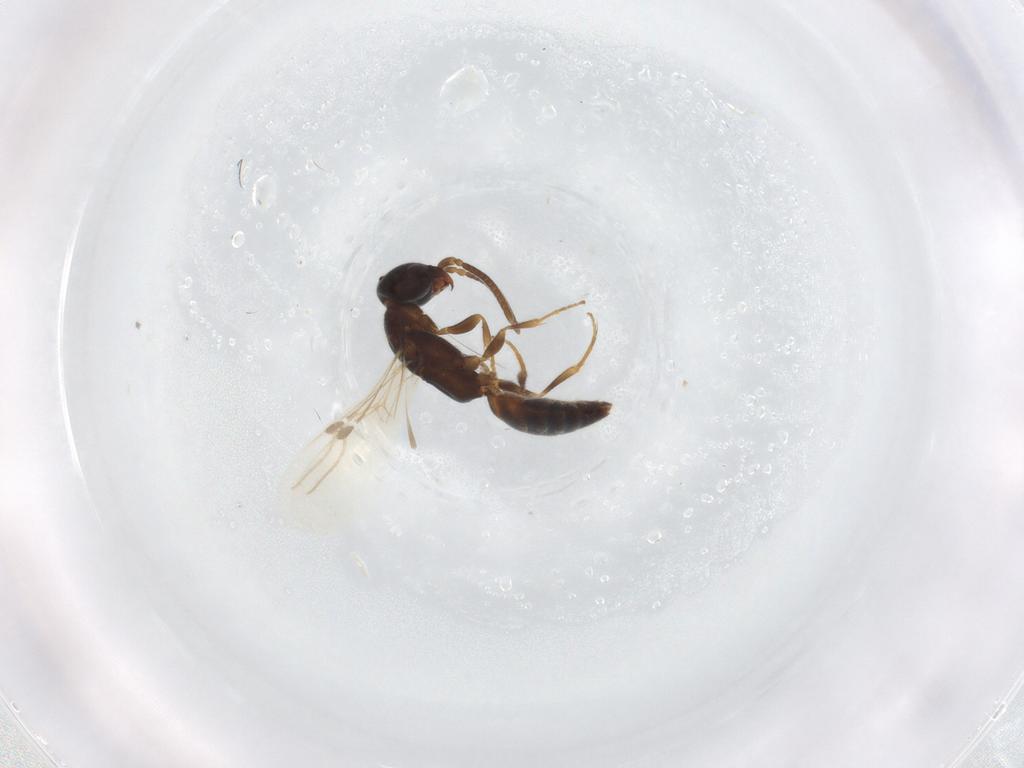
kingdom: Animalia
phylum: Arthropoda
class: Insecta
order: Hymenoptera
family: Bethylidae
